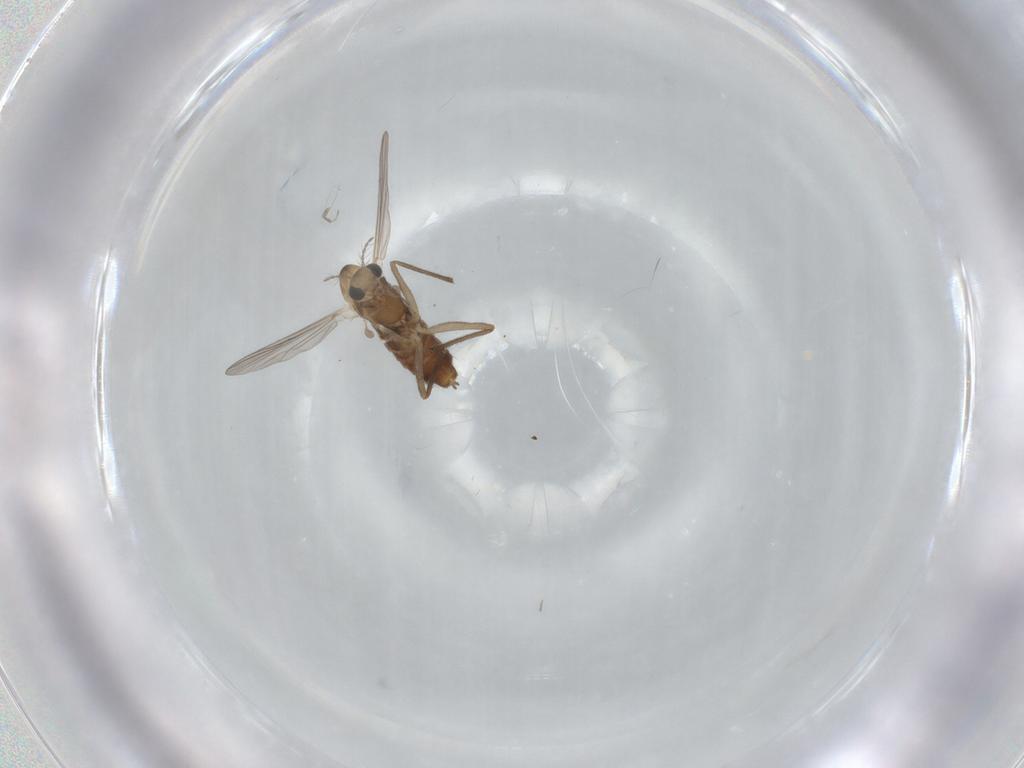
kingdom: Animalia
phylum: Arthropoda
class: Insecta
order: Diptera
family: Chironomidae
